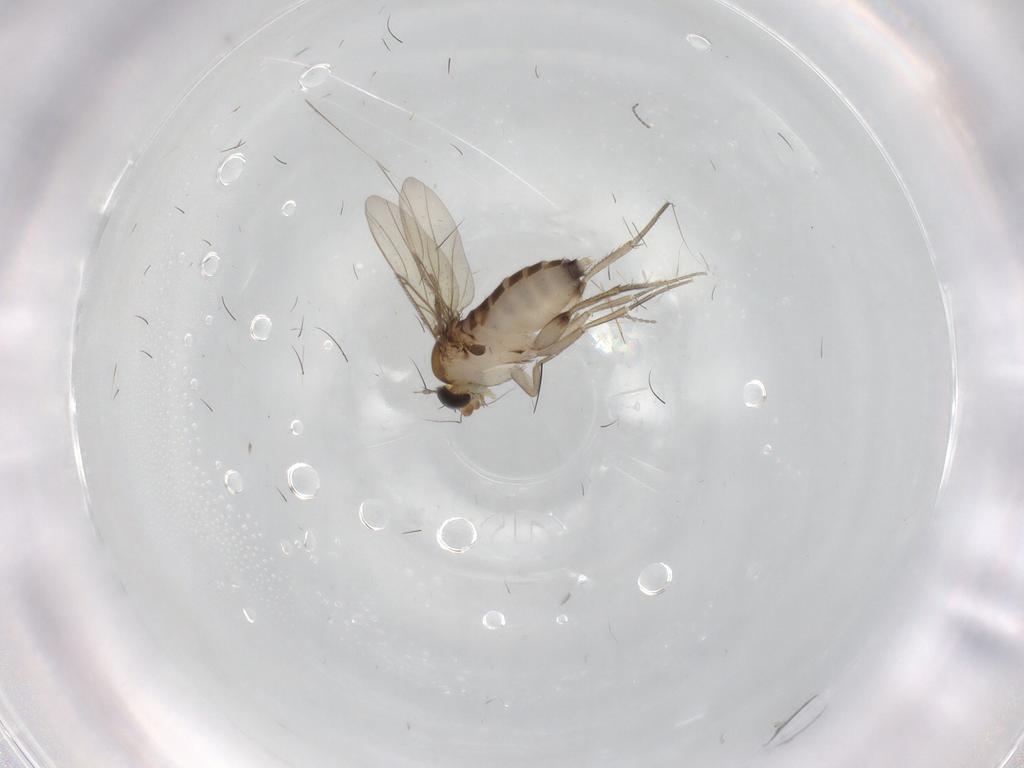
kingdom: Animalia
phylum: Arthropoda
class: Insecta
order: Diptera
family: Phoridae
